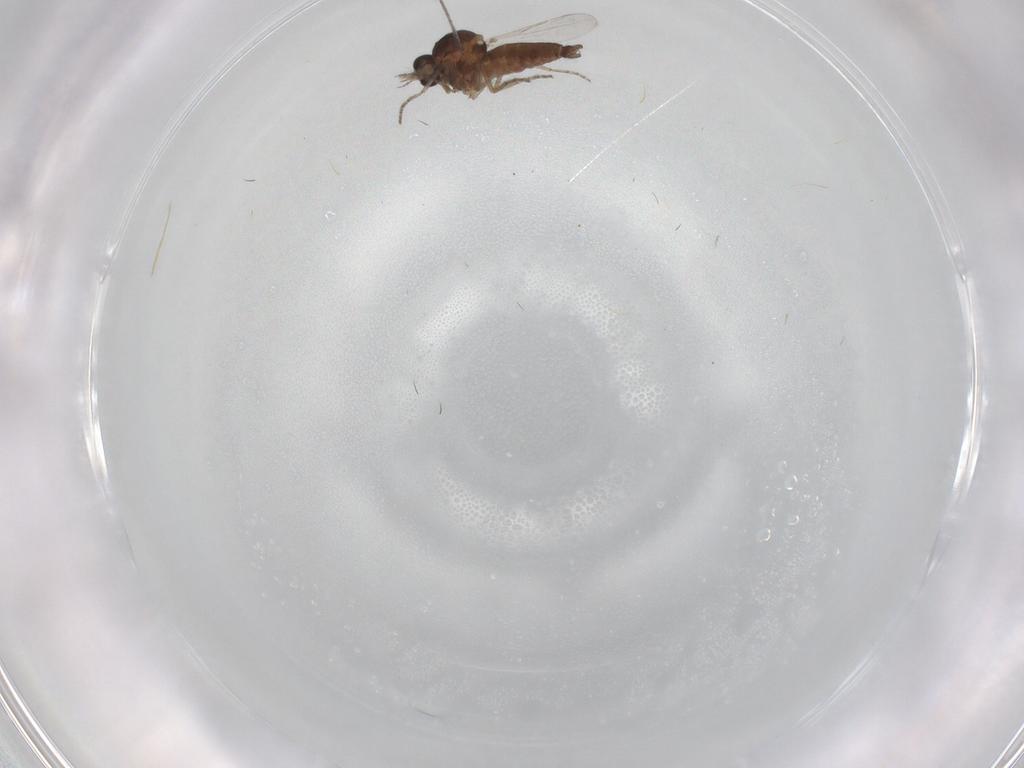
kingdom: Animalia
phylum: Arthropoda
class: Insecta
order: Diptera
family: Ceratopogonidae
